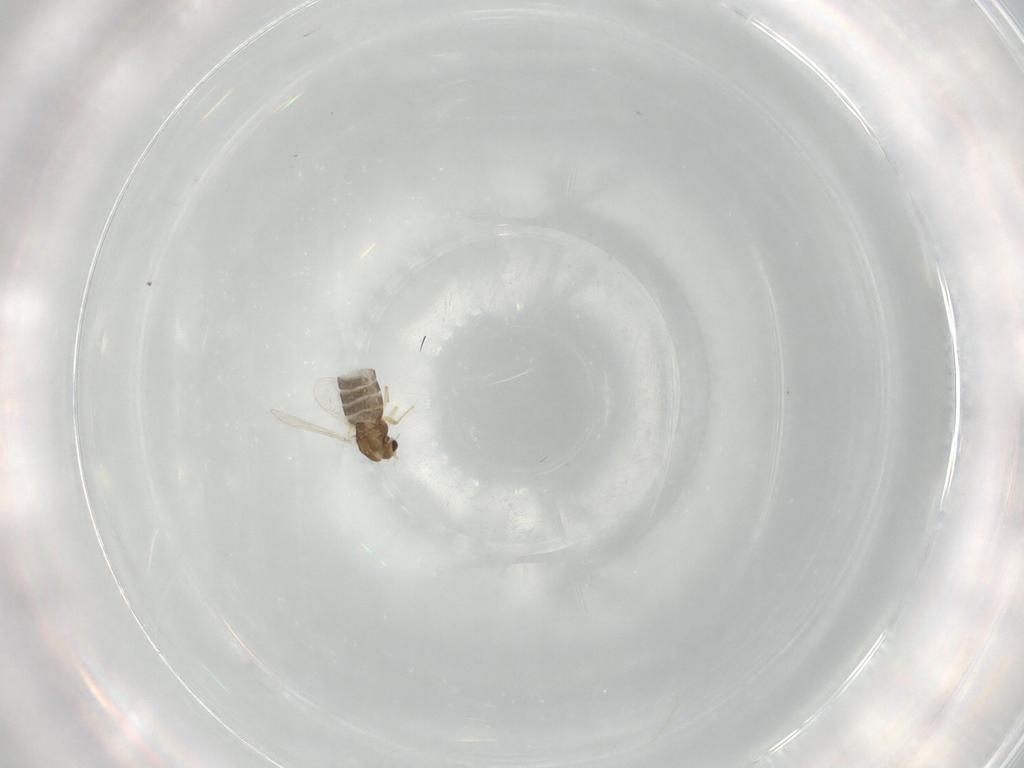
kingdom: Animalia
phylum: Arthropoda
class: Insecta
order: Diptera
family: Chironomidae
